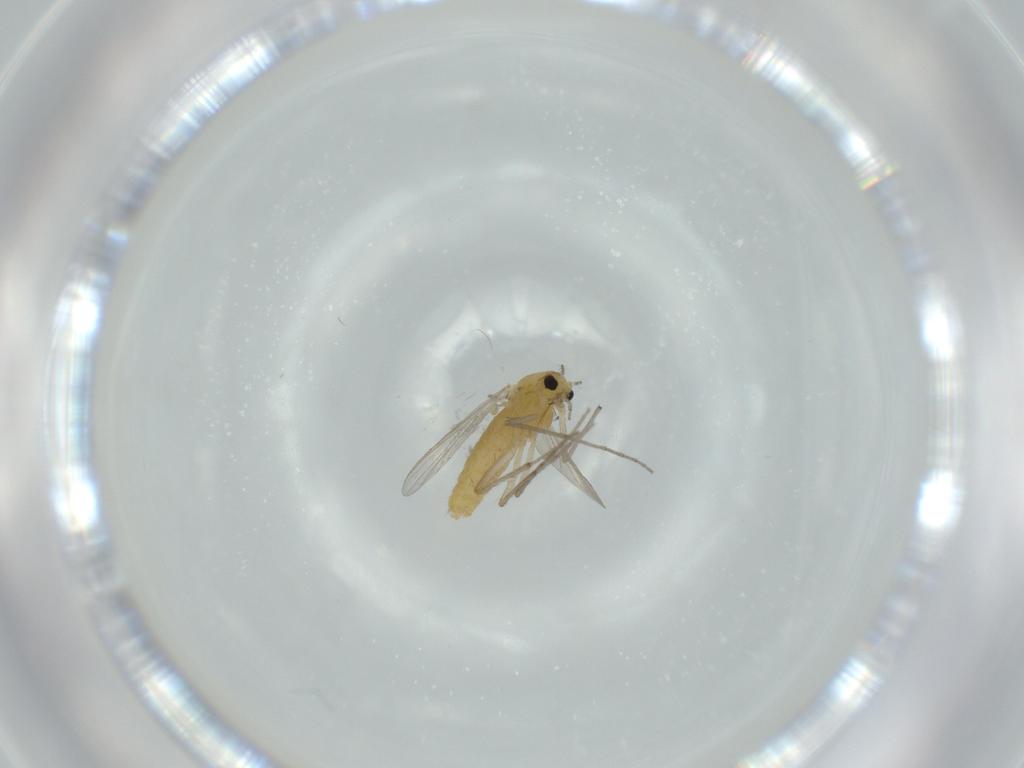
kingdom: Animalia
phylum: Arthropoda
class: Insecta
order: Diptera
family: Chironomidae
